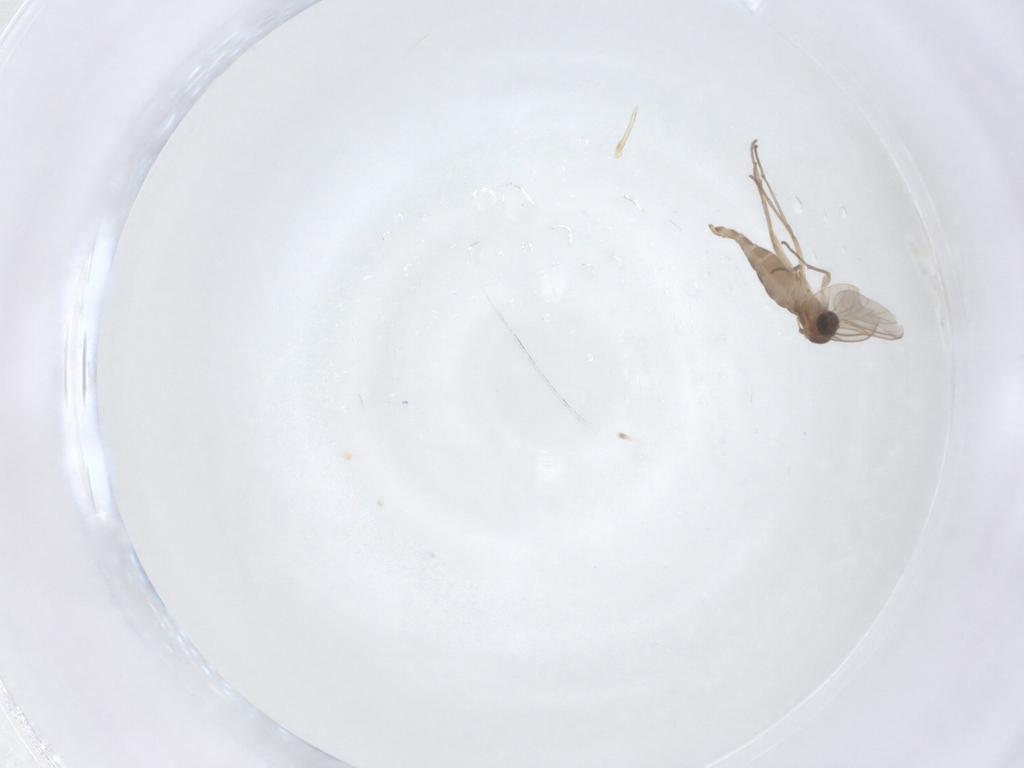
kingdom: Animalia
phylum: Arthropoda
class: Insecta
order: Diptera
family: Sciaridae
